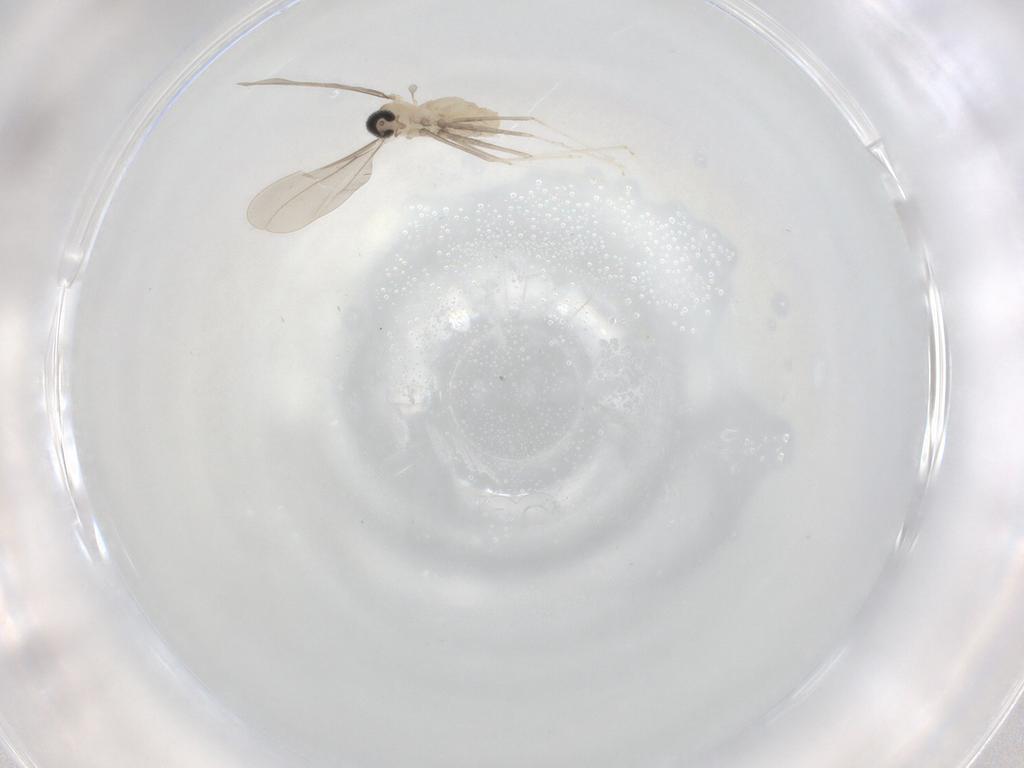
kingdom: Animalia
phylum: Arthropoda
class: Insecta
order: Diptera
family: Cecidomyiidae
